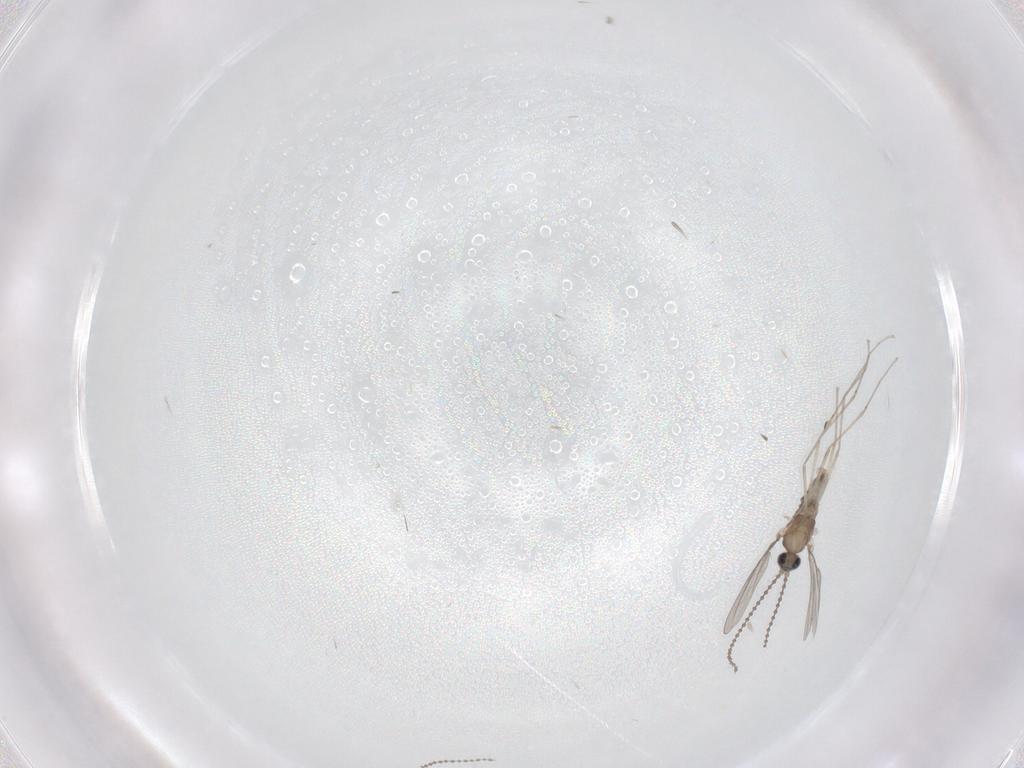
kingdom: Animalia
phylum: Arthropoda
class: Insecta
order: Diptera
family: Cecidomyiidae
